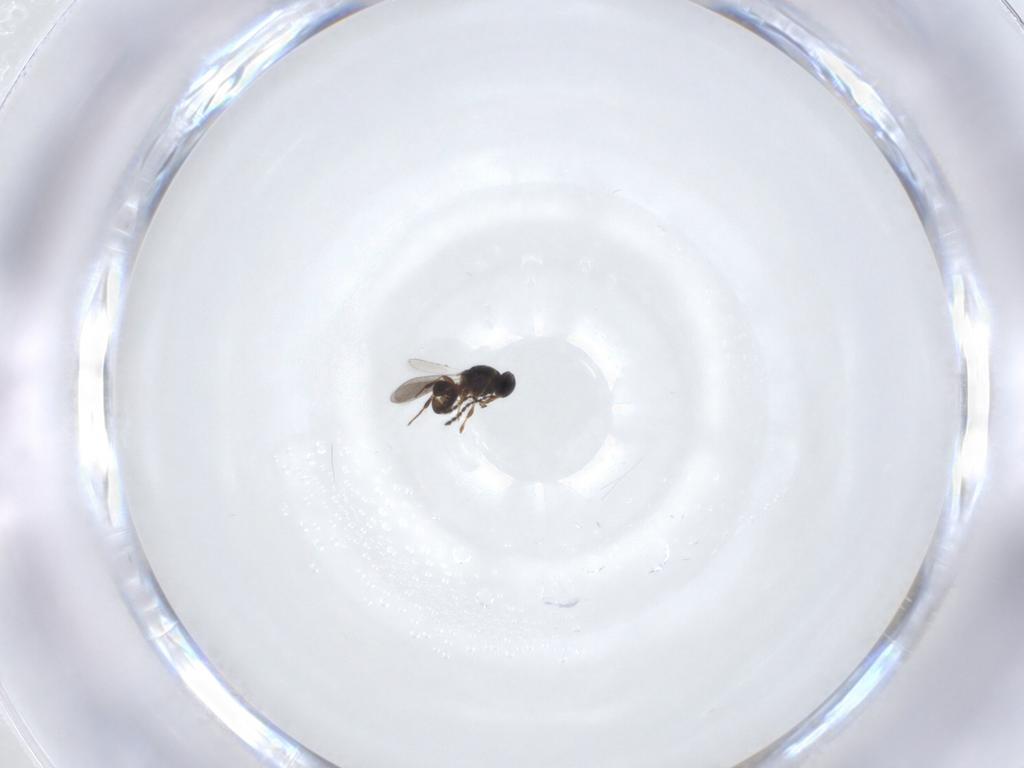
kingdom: Animalia
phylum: Arthropoda
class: Insecta
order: Hymenoptera
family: Platygastridae
